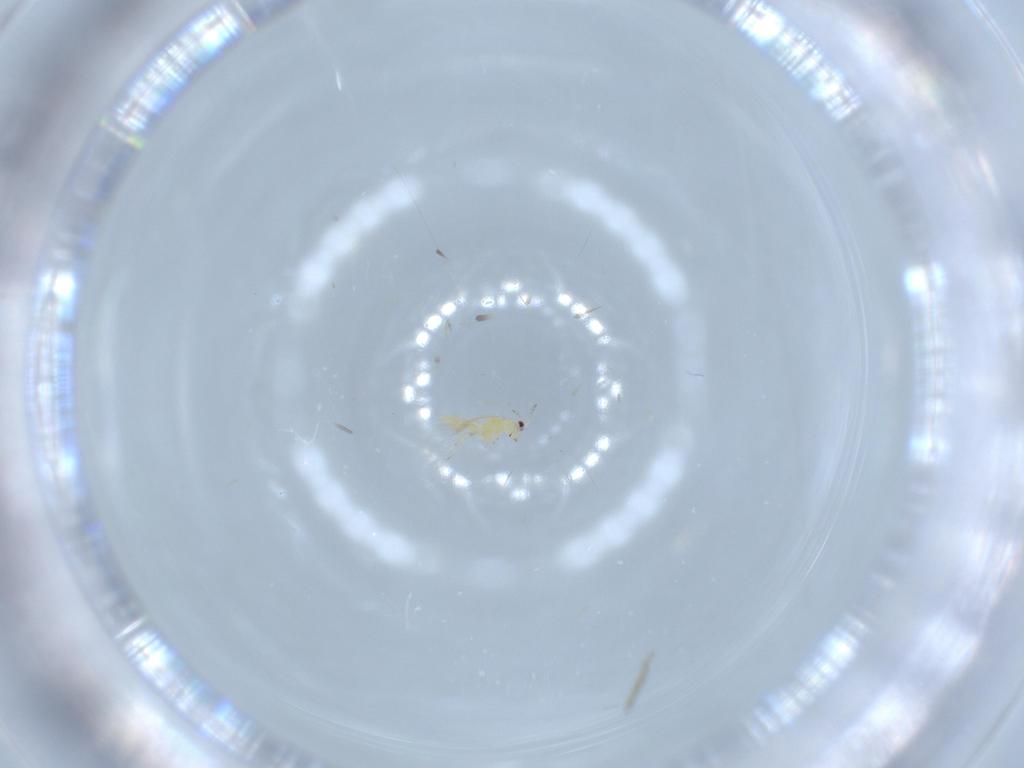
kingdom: Animalia
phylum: Arthropoda
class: Insecta
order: Thysanoptera
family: Thripidae
